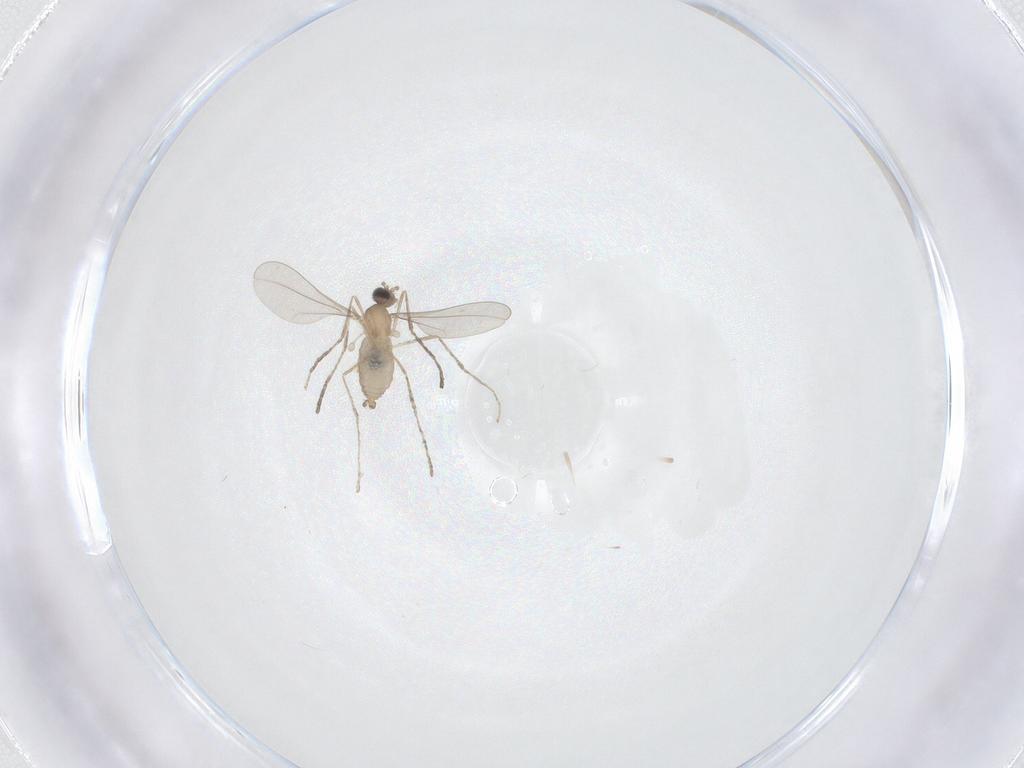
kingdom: Animalia
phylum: Arthropoda
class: Insecta
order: Diptera
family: Cecidomyiidae
